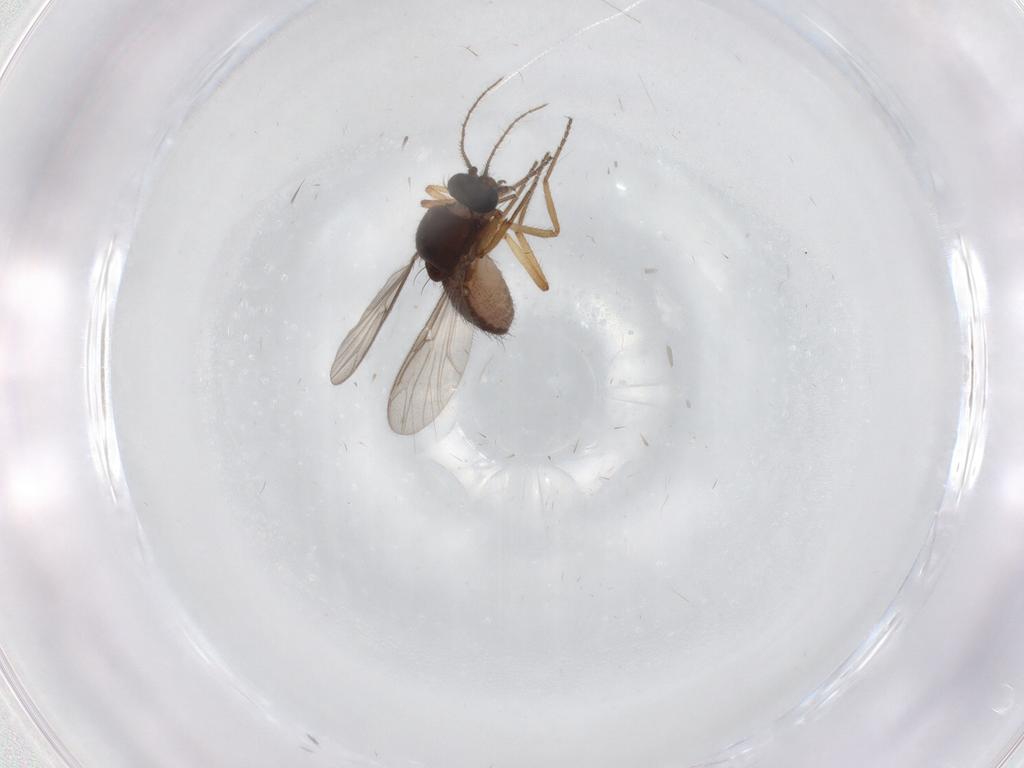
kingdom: Animalia
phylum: Arthropoda
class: Insecta
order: Diptera
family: Ceratopogonidae
